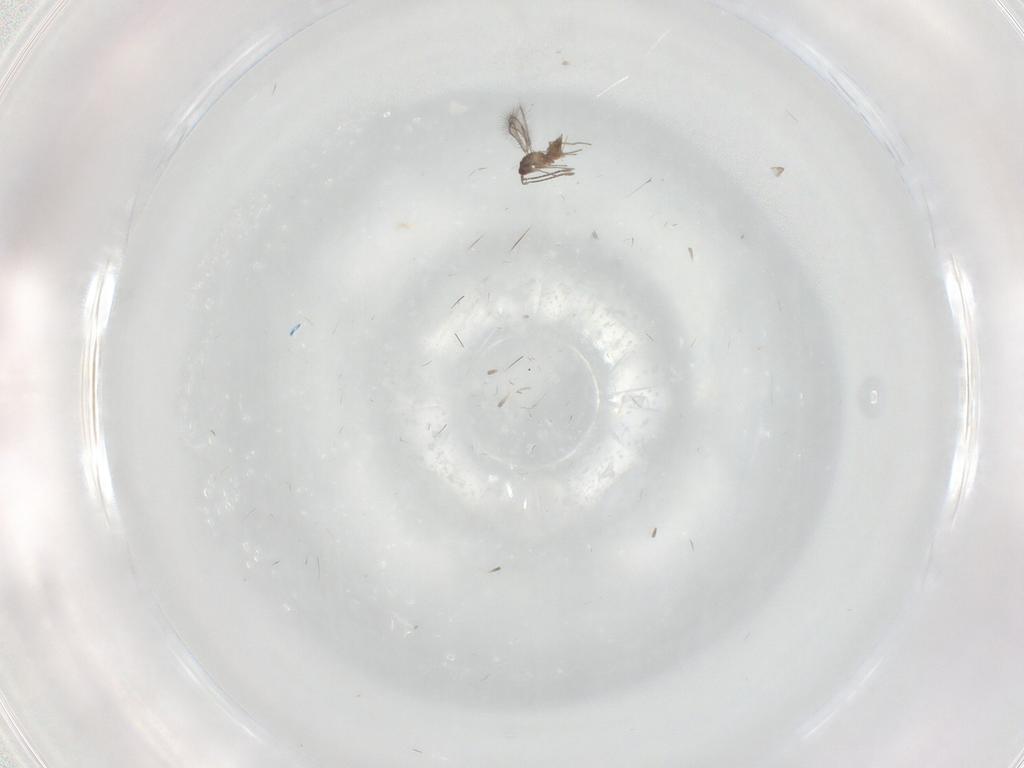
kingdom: Animalia
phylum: Arthropoda
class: Insecta
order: Hymenoptera
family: Mymaridae
